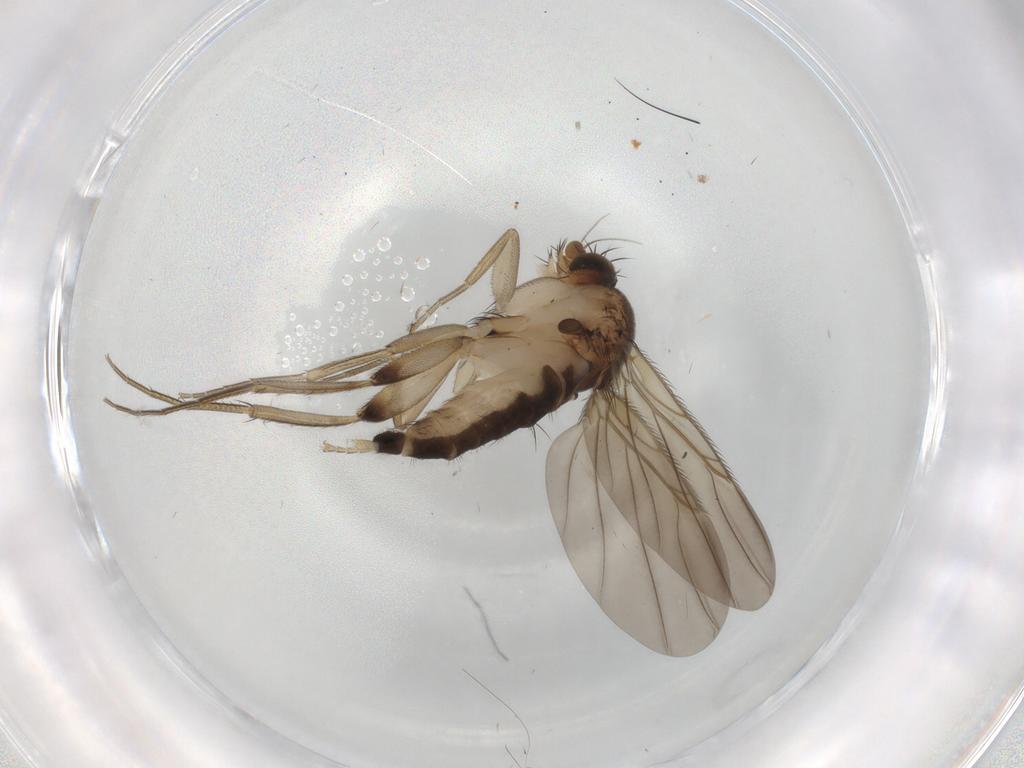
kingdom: Animalia
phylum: Arthropoda
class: Insecta
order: Diptera
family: Phoridae
